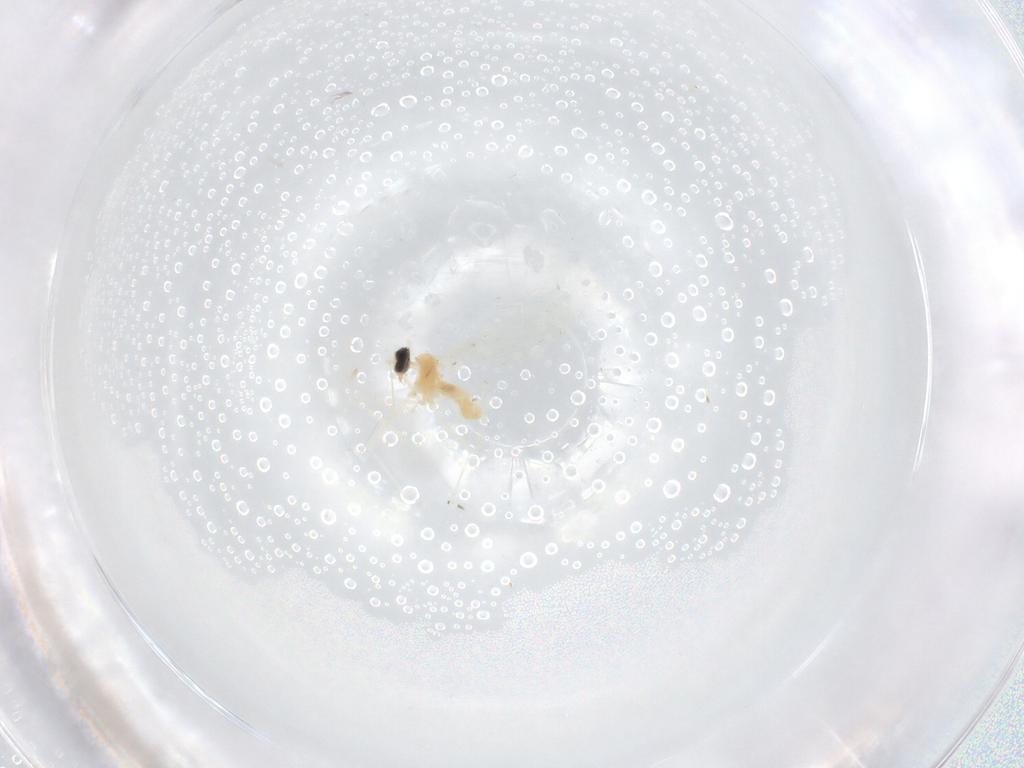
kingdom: Animalia
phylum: Arthropoda
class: Insecta
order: Diptera
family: Cecidomyiidae
